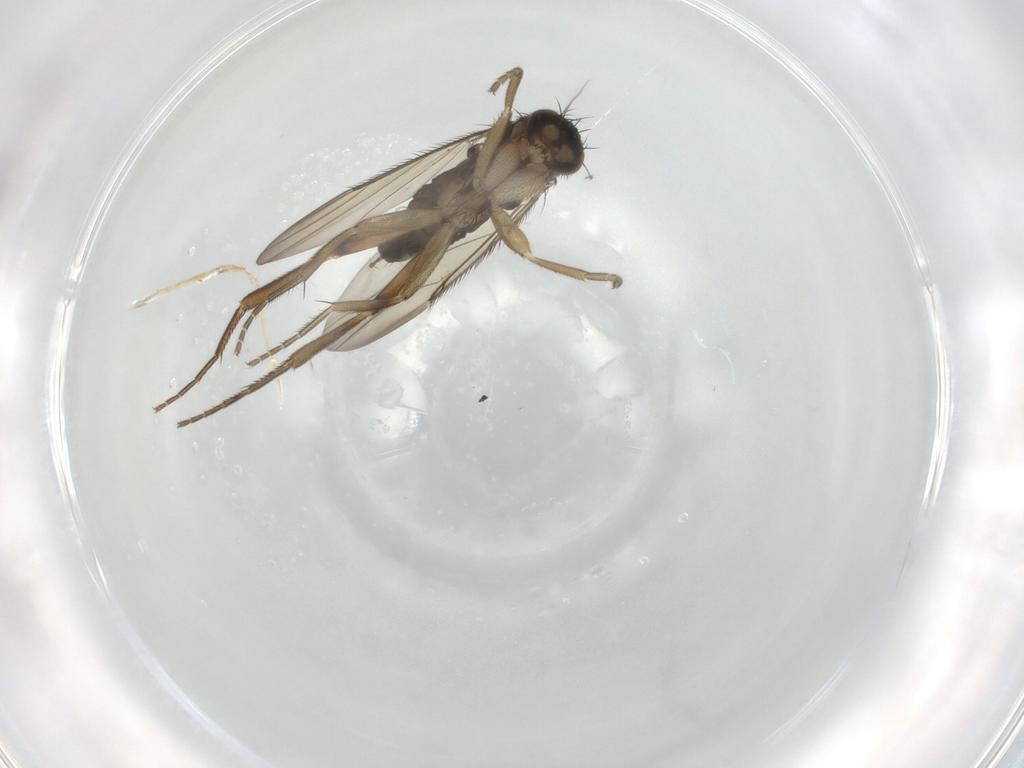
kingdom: Animalia
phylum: Arthropoda
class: Insecta
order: Diptera
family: Phoridae
